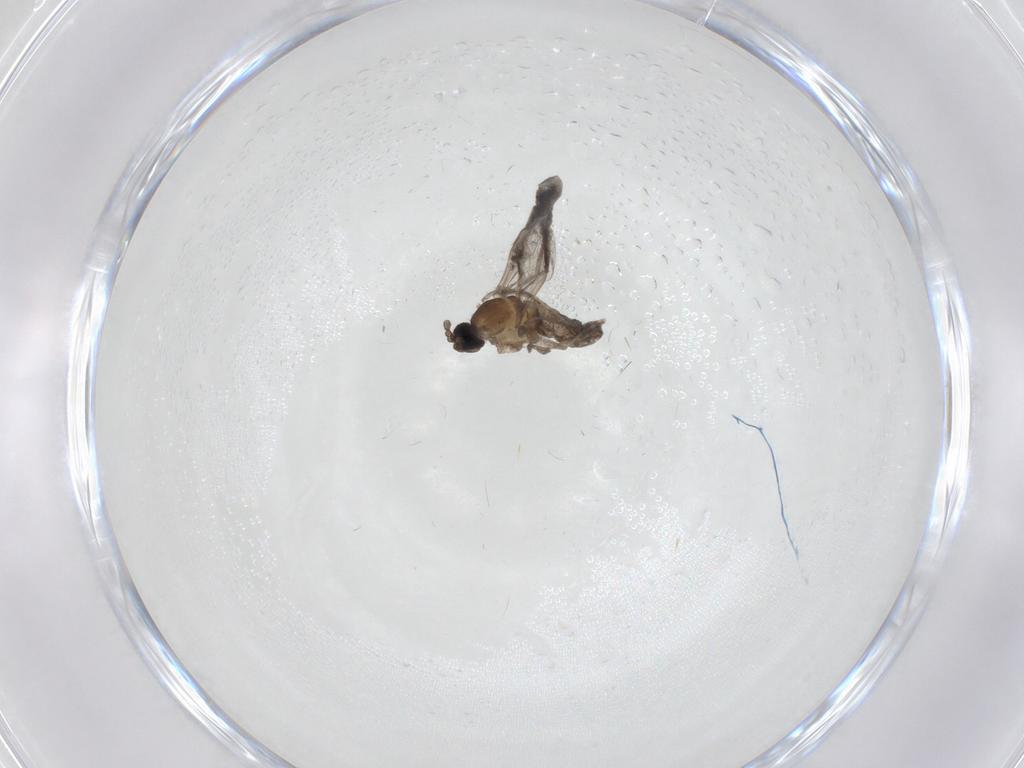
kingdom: Animalia
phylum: Arthropoda
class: Insecta
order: Diptera
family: Cecidomyiidae
